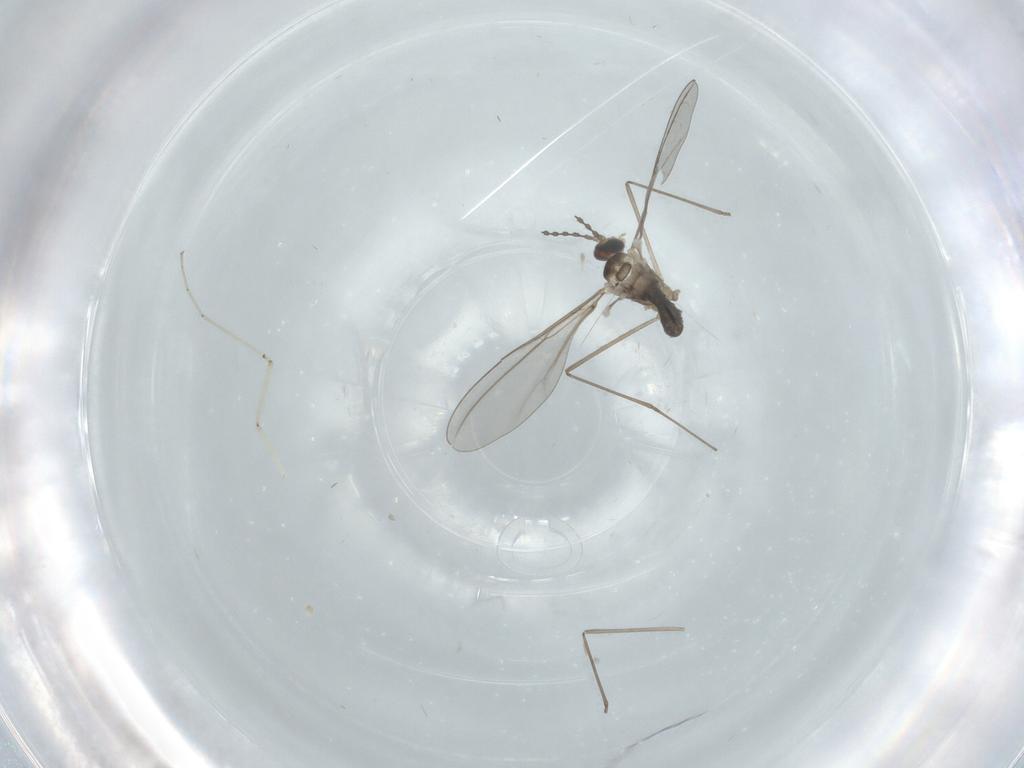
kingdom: Animalia
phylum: Arthropoda
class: Insecta
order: Diptera
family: Cecidomyiidae
